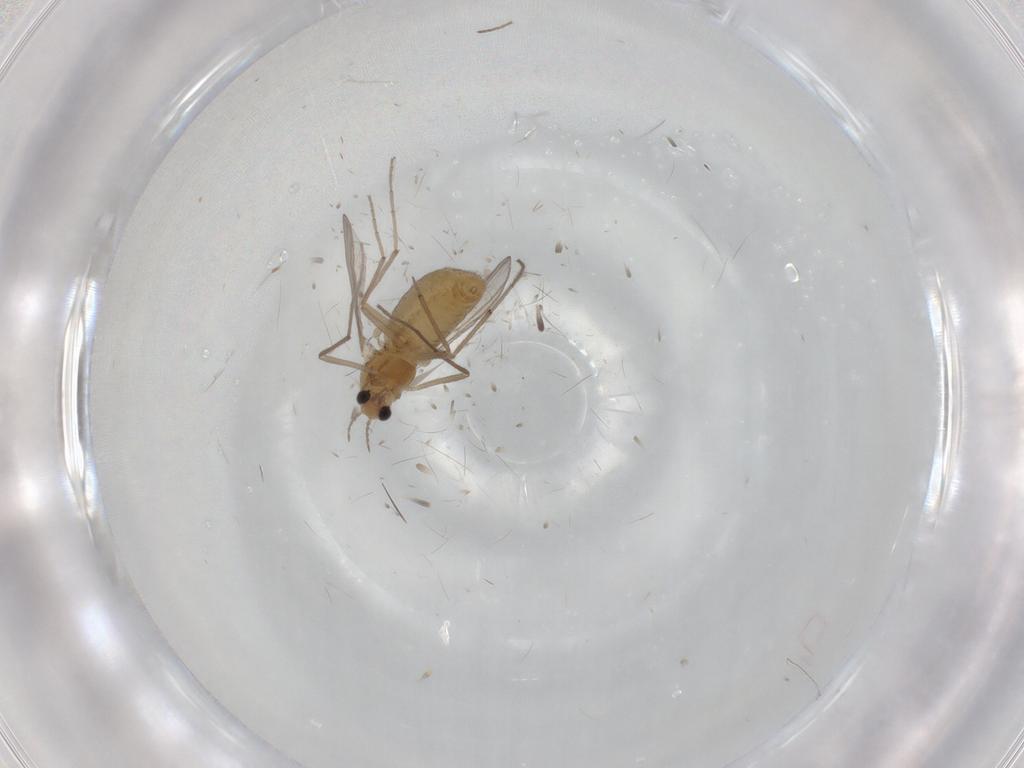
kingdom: Animalia
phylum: Arthropoda
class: Insecta
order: Diptera
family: Chironomidae
